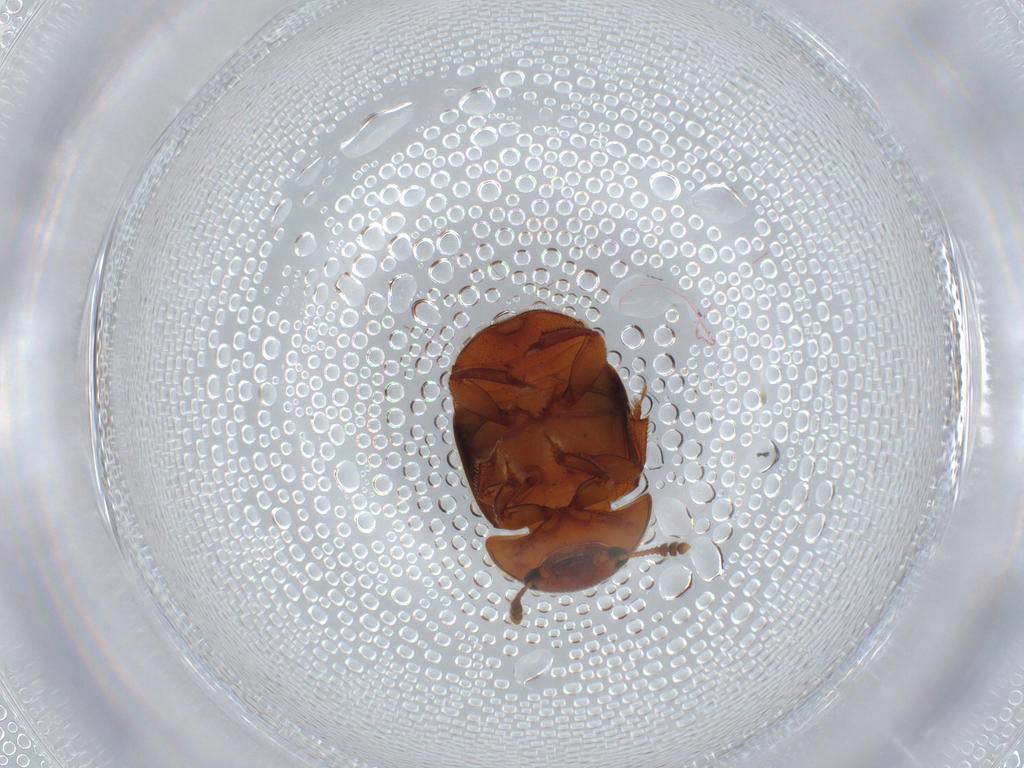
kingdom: Animalia
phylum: Arthropoda
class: Insecta
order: Coleoptera
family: Nitidulidae
